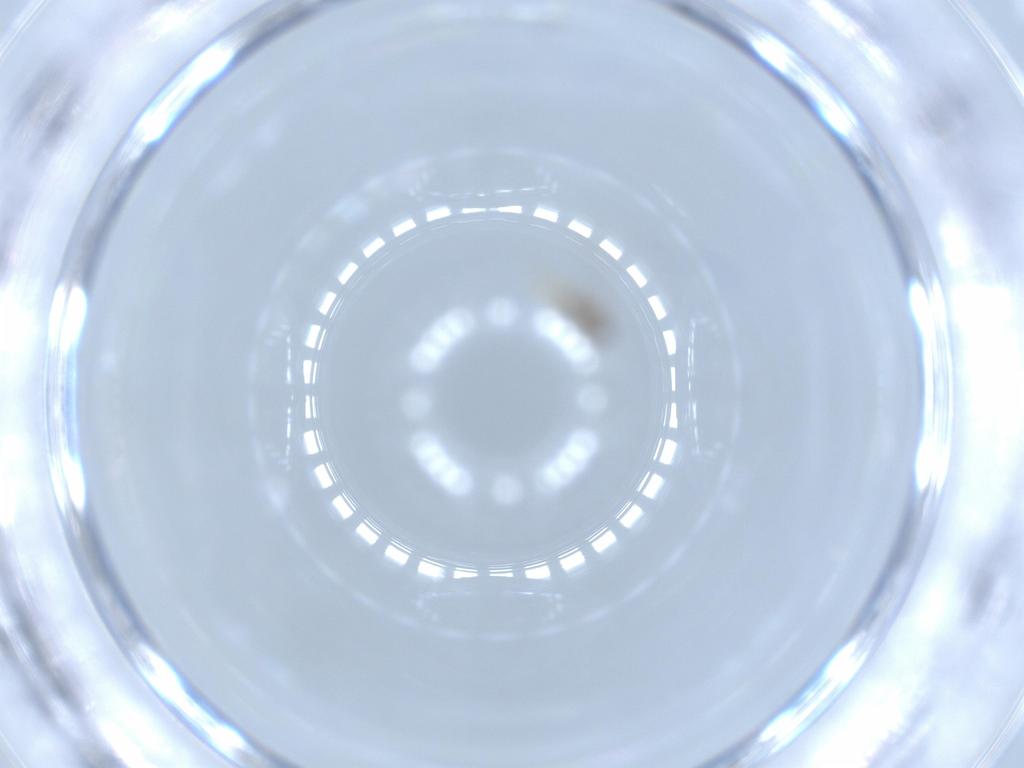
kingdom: Animalia
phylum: Arthropoda
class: Insecta
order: Diptera
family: Cecidomyiidae
